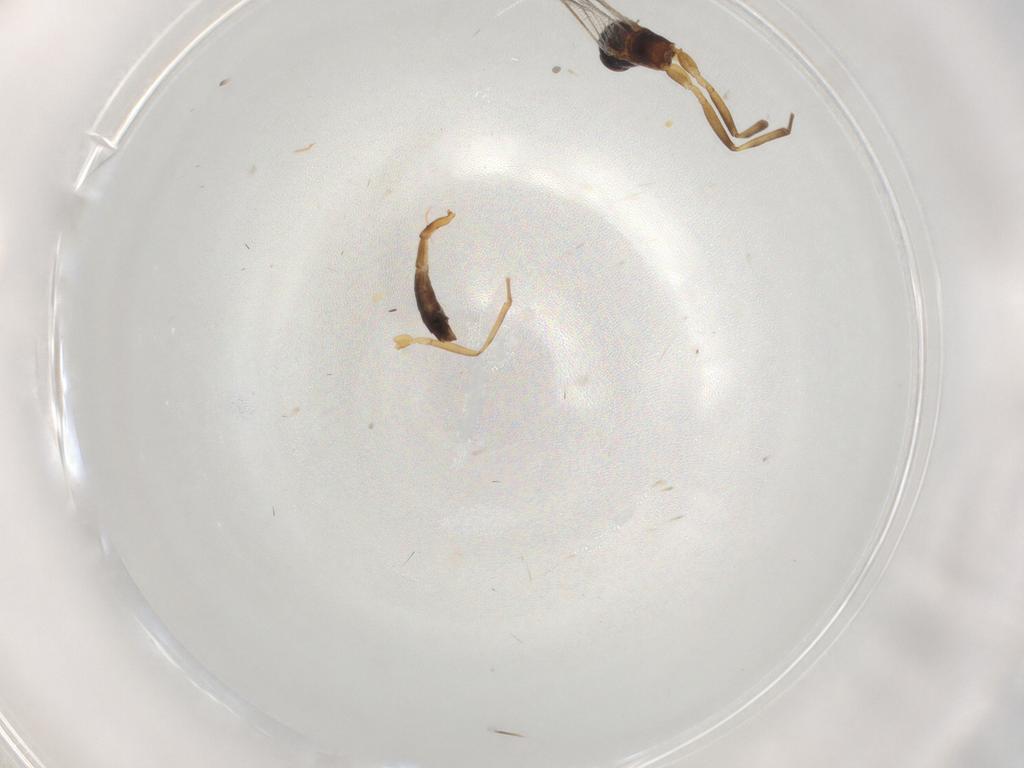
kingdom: Animalia
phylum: Arthropoda
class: Insecta
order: Hymenoptera
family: Ichneumonidae
